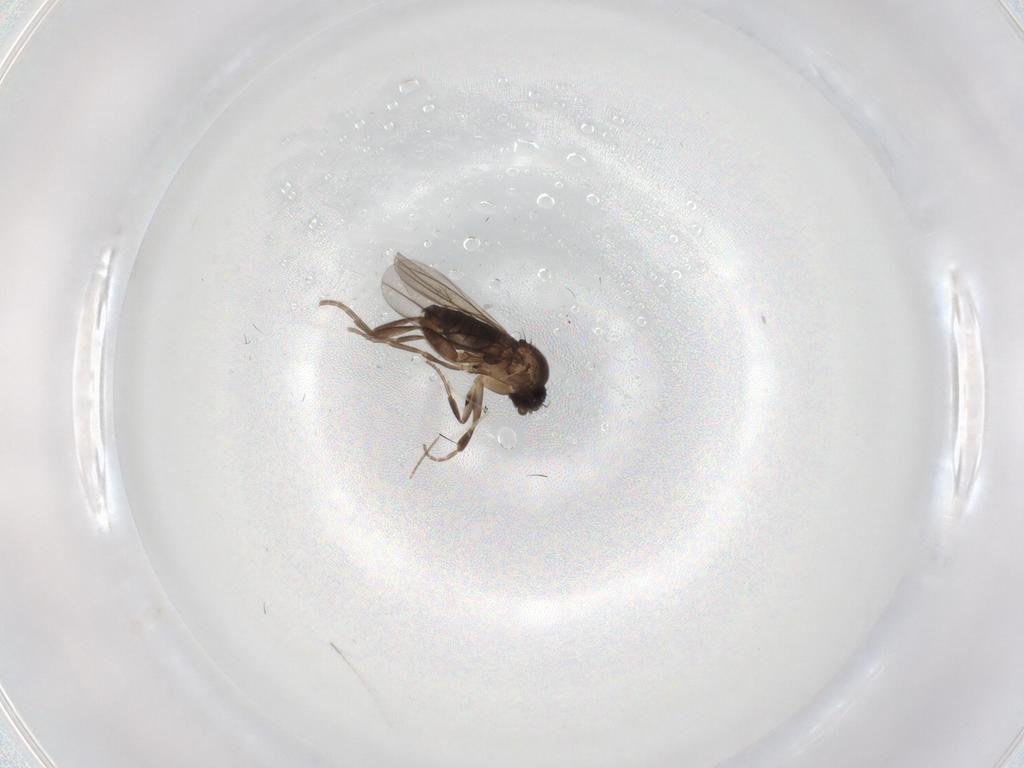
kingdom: Animalia
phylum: Arthropoda
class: Insecta
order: Diptera
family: Phoridae
